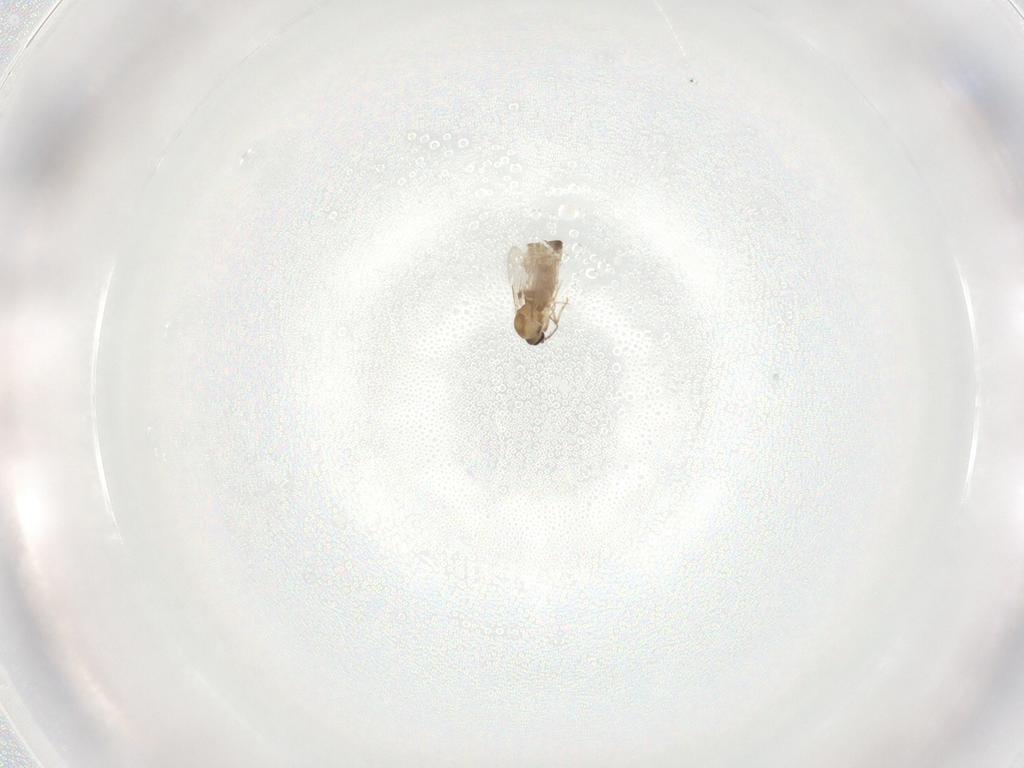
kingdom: Animalia
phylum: Arthropoda
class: Insecta
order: Diptera
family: Ceratopogonidae
